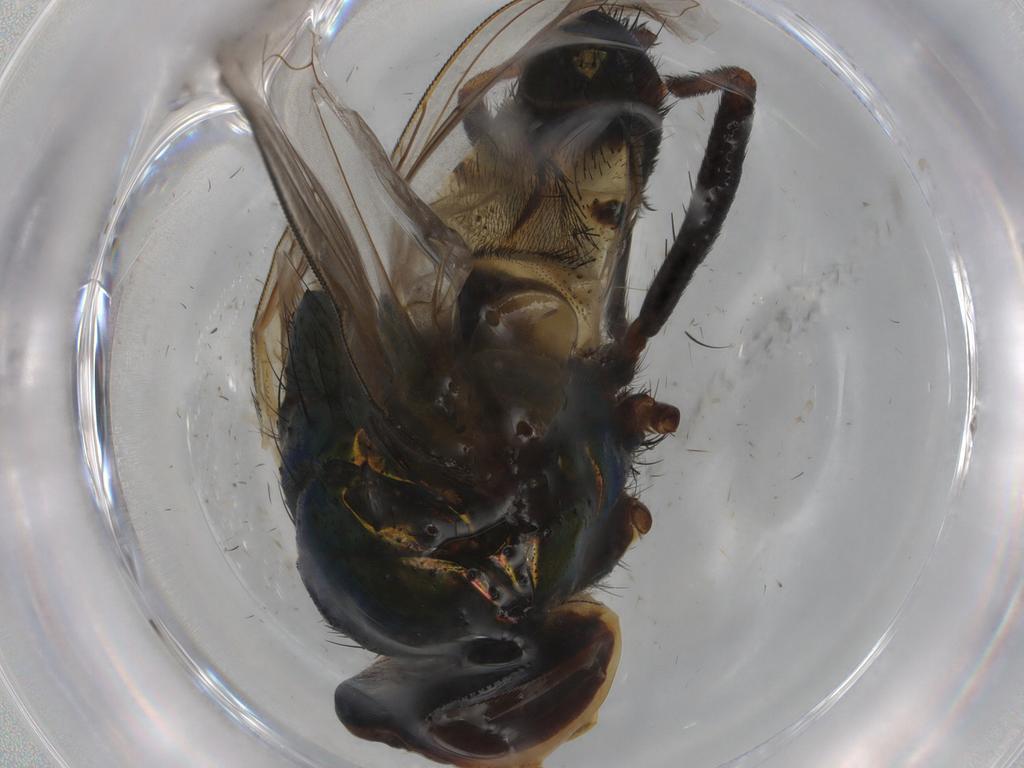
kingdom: Animalia
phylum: Arthropoda
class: Insecta
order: Diptera
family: Calliphoridae
